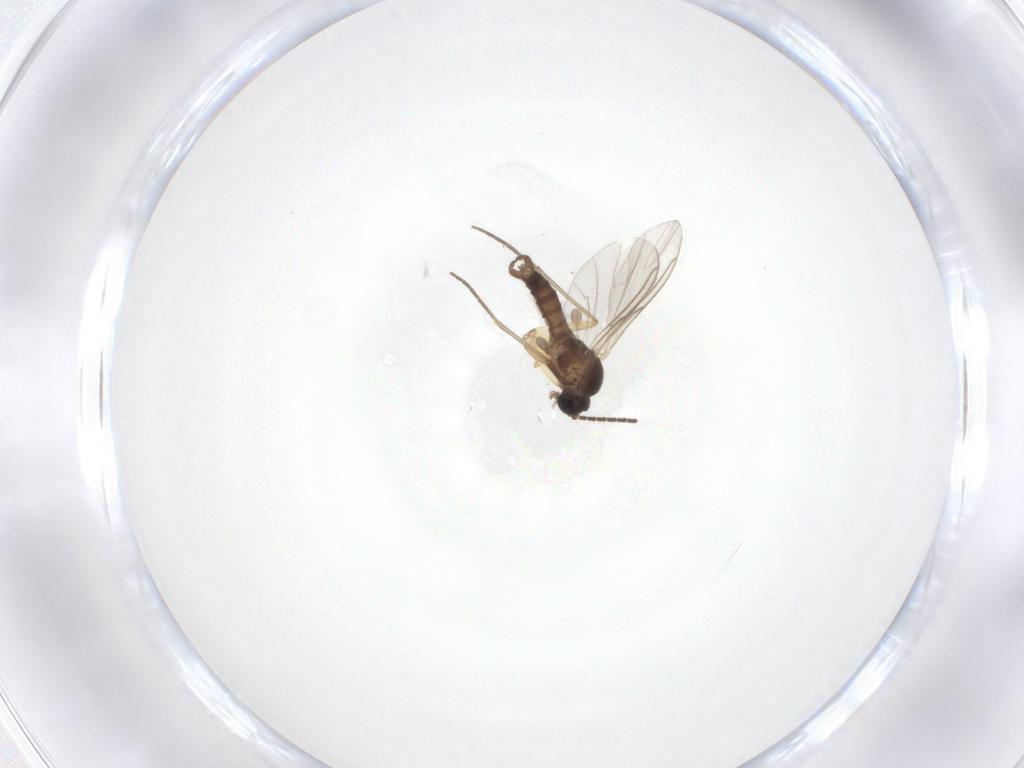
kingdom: Animalia
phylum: Arthropoda
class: Insecta
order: Diptera
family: Sciaridae
